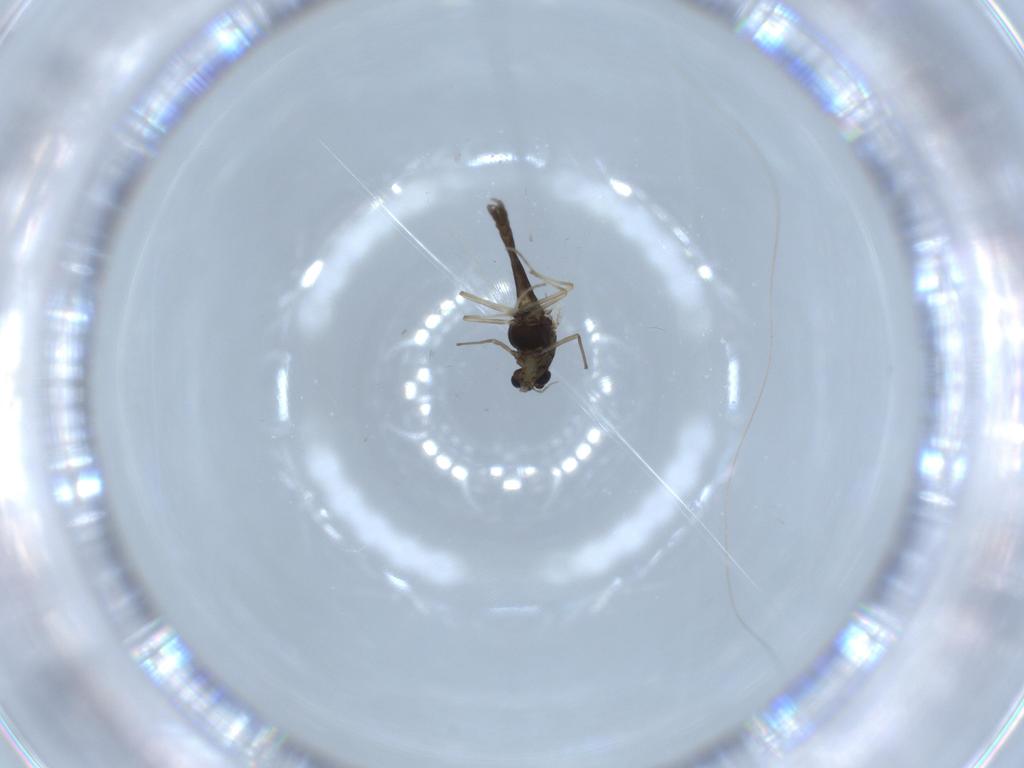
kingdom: Animalia
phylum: Arthropoda
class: Insecta
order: Diptera
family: Chironomidae
